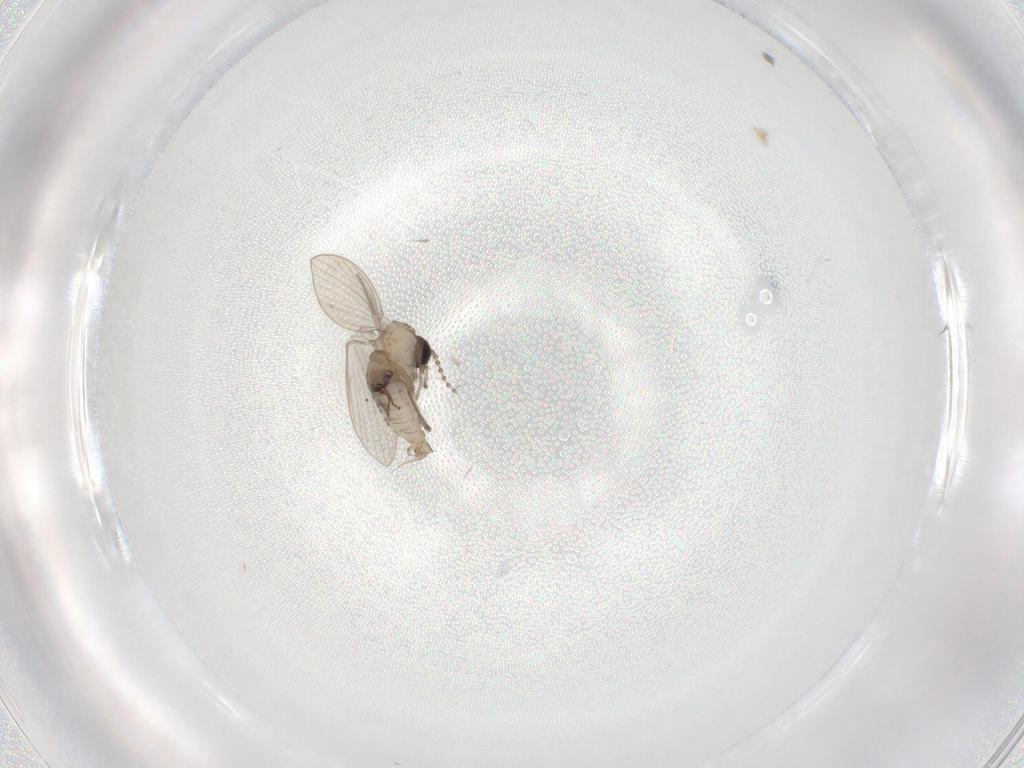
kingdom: Animalia
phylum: Arthropoda
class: Insecta
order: Diptera
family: Psychodidae
